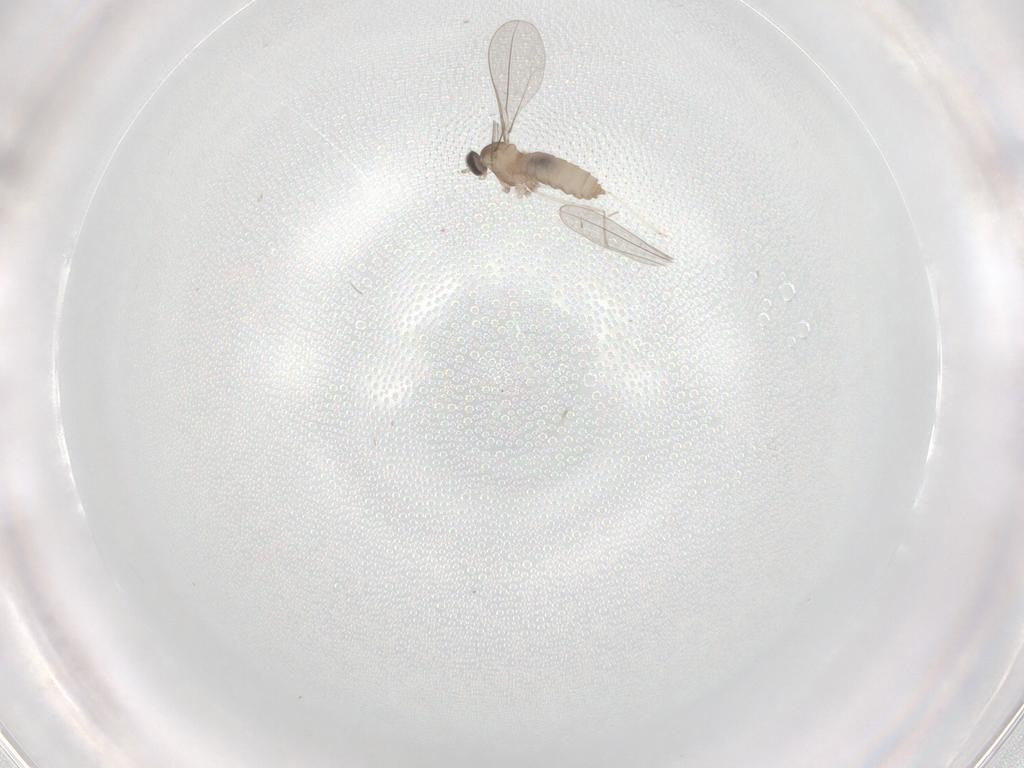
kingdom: Animalia
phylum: Arthropoda
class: Insecta
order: Diptera
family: Cecidomyiidae
